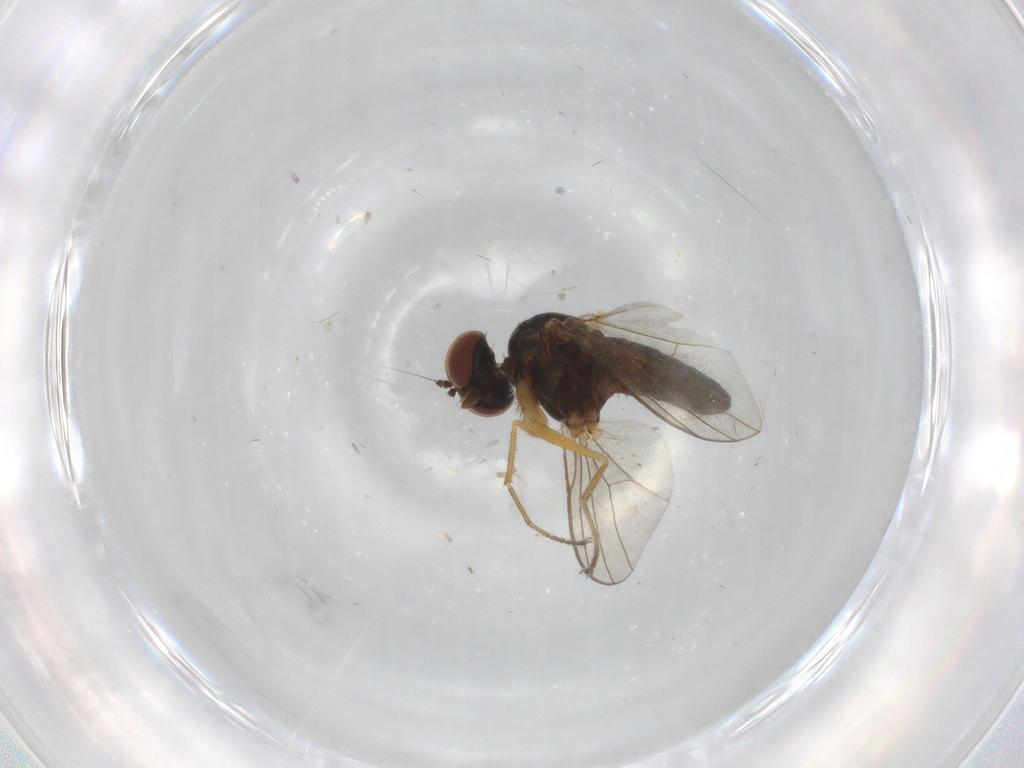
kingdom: Animalia
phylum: Arthropoda
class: Insecta
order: Diptera
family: Dolichopodidae
